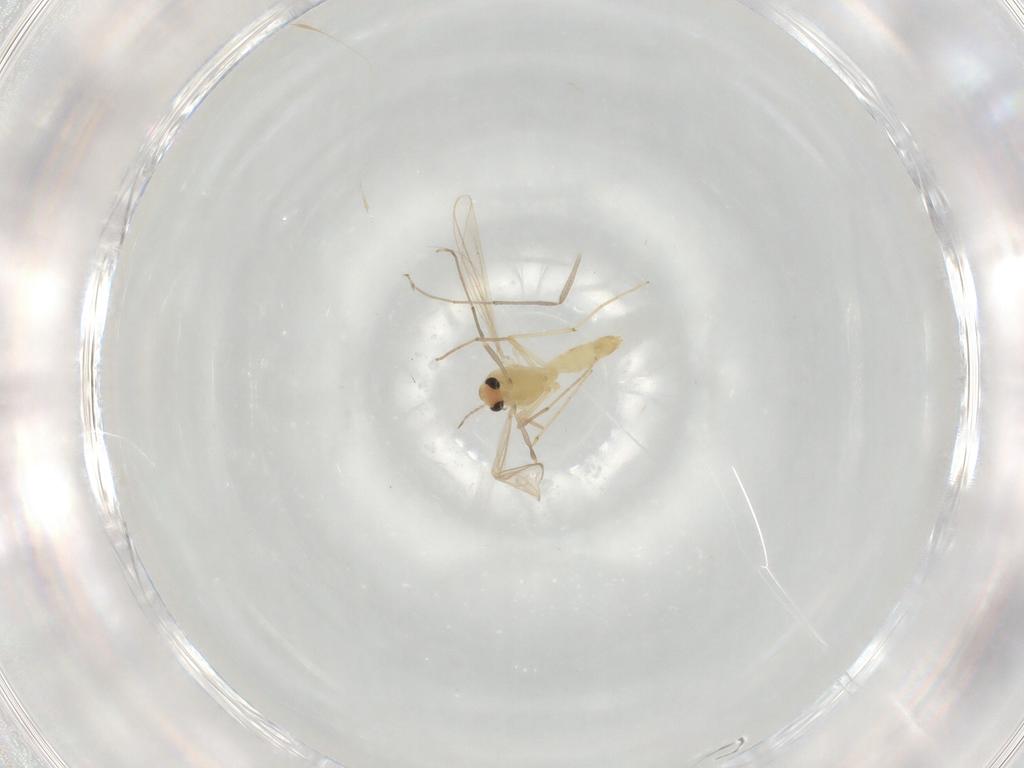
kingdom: Animalia
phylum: Arthropoda
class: Insecta
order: Diptera
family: Chironomidae
